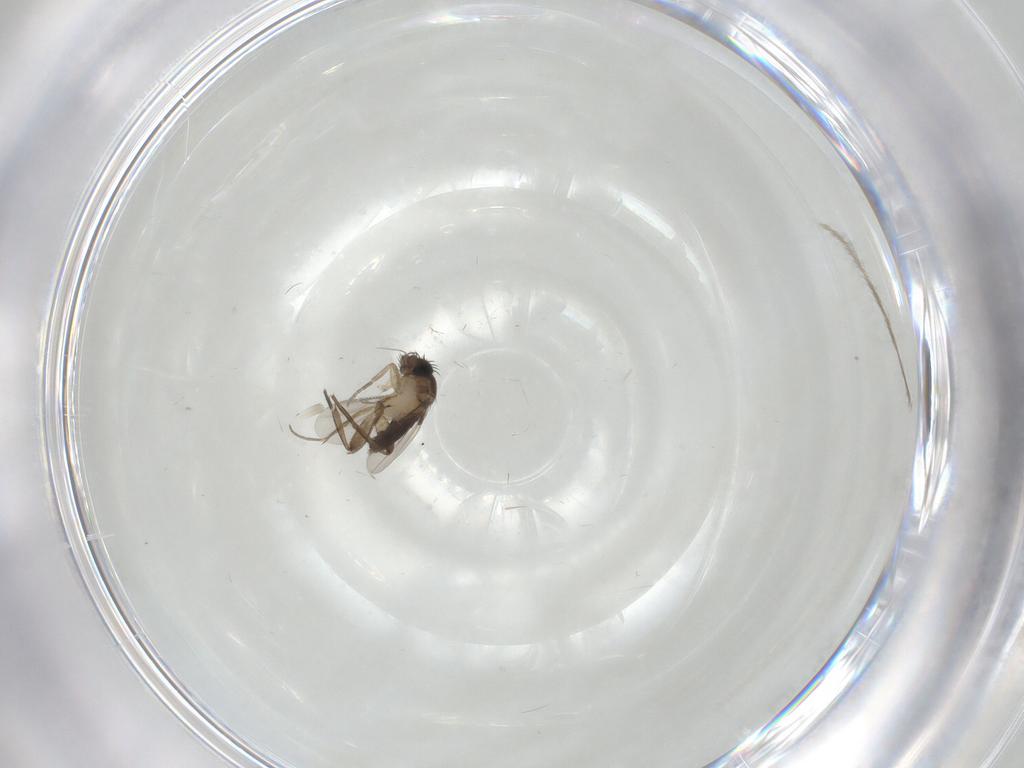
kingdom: Animalia
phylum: Arthropoda
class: Insecta
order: Diptera
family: Phoridae
